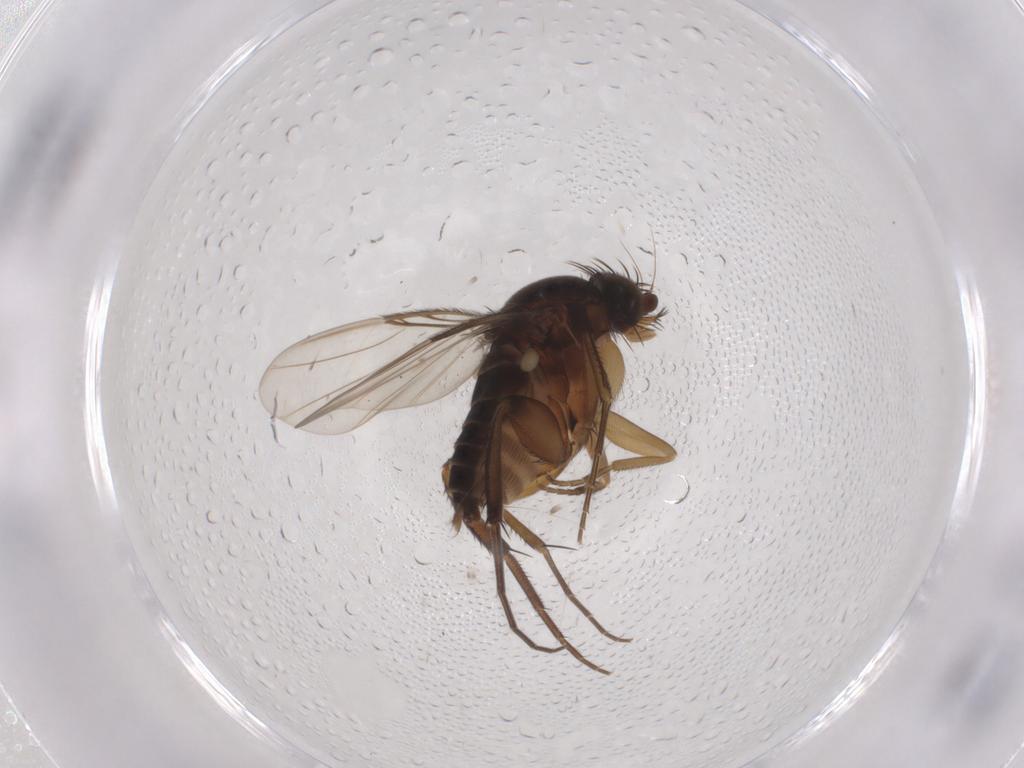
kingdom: Animalia
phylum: Arthropoda
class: Insecta
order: Diptera
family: Phoridae
